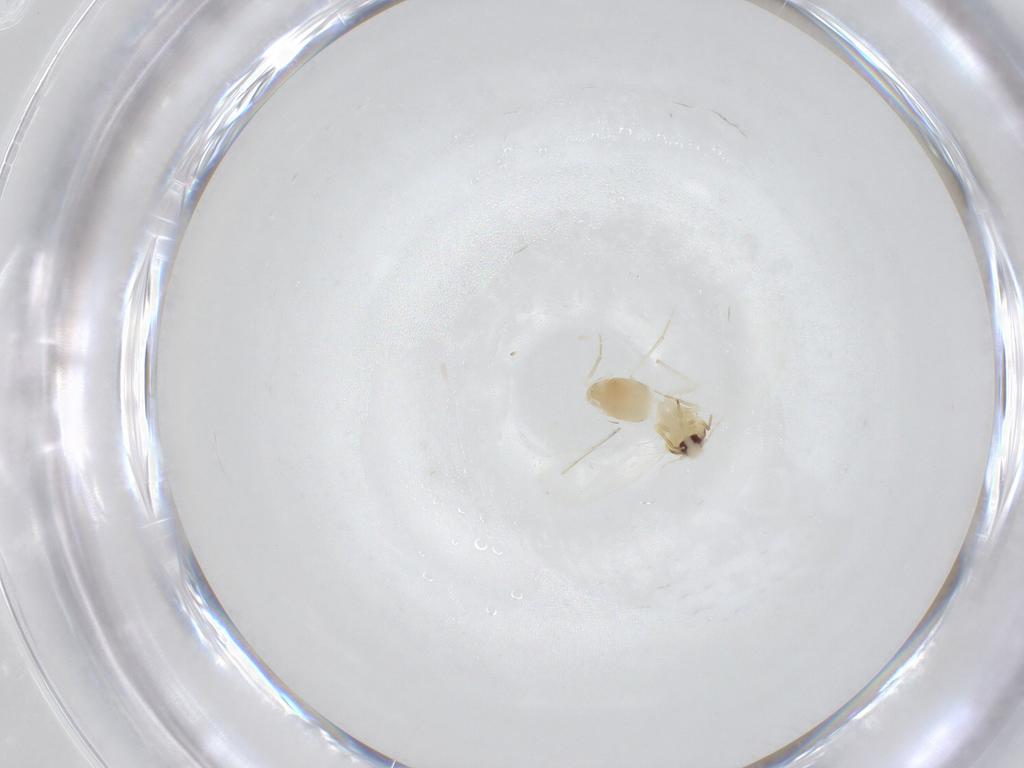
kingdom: Animalia
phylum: Arthropoda
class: Insecta
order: Hemiptera
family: Aleyrodidae
